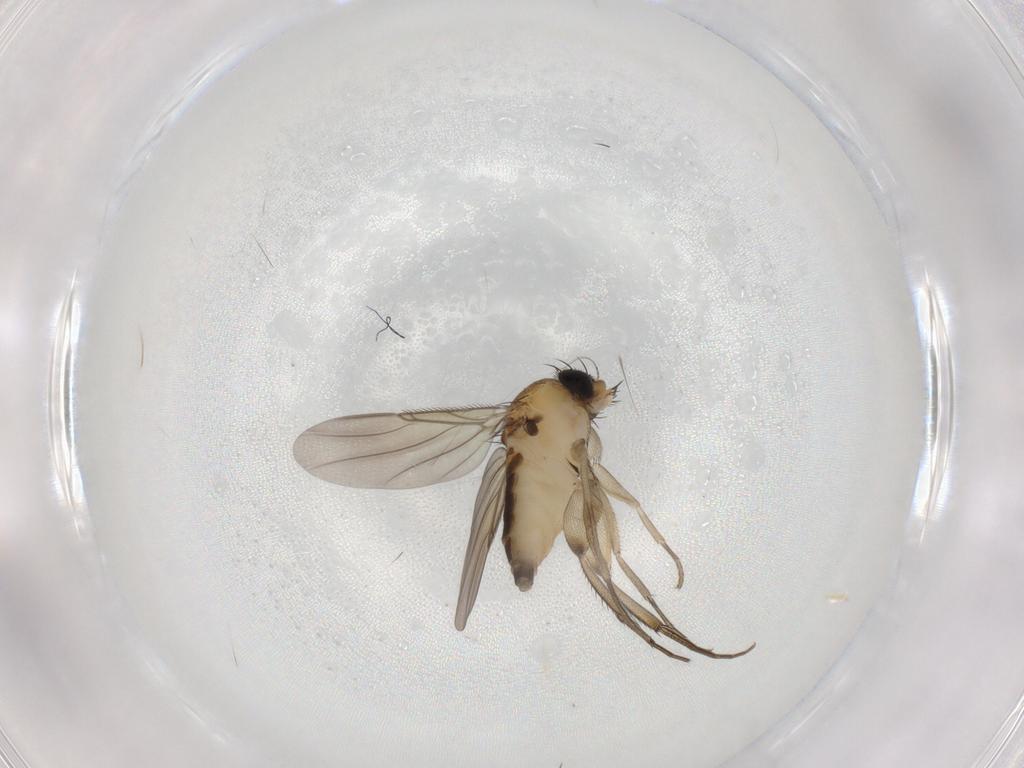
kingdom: Animalia
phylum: Arthropoda
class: Insecta
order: Diptera
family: Phoridae
